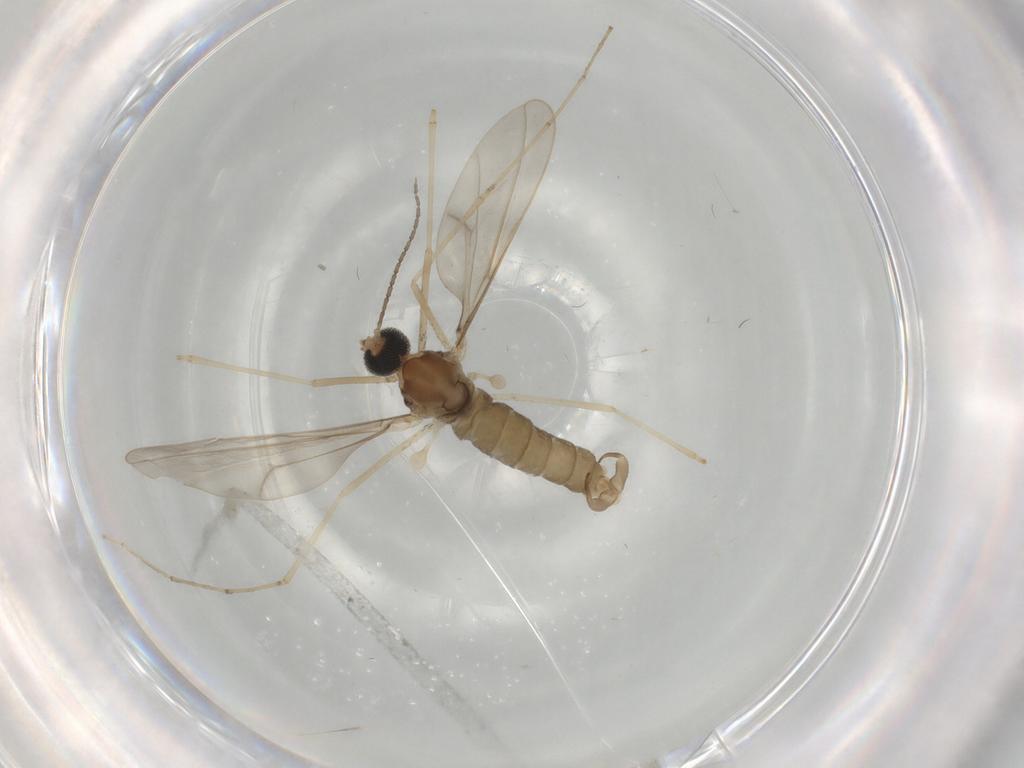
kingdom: Animalia
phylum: Arthropoda
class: Insecta
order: Diptera
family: Cecidomyiidae
